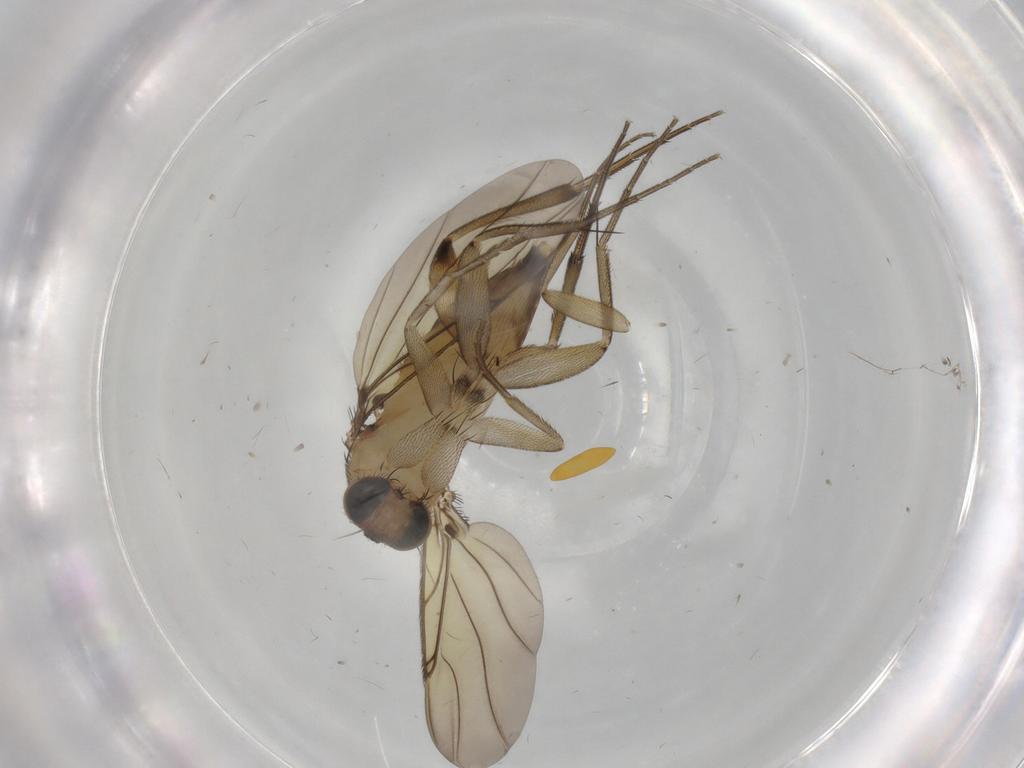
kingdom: Animalia
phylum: Arthropoda
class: Insecta
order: Diptera
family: Phoridae
